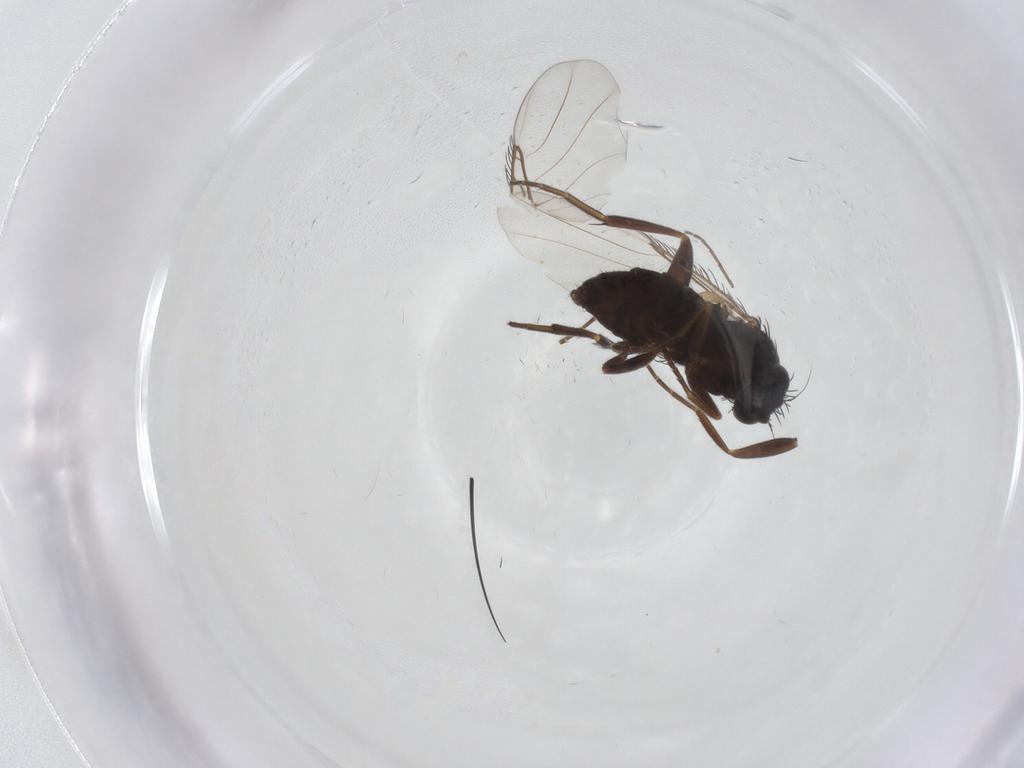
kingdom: Animalia
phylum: Arthropoda
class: Insecta
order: Diptera
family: Phoridae
